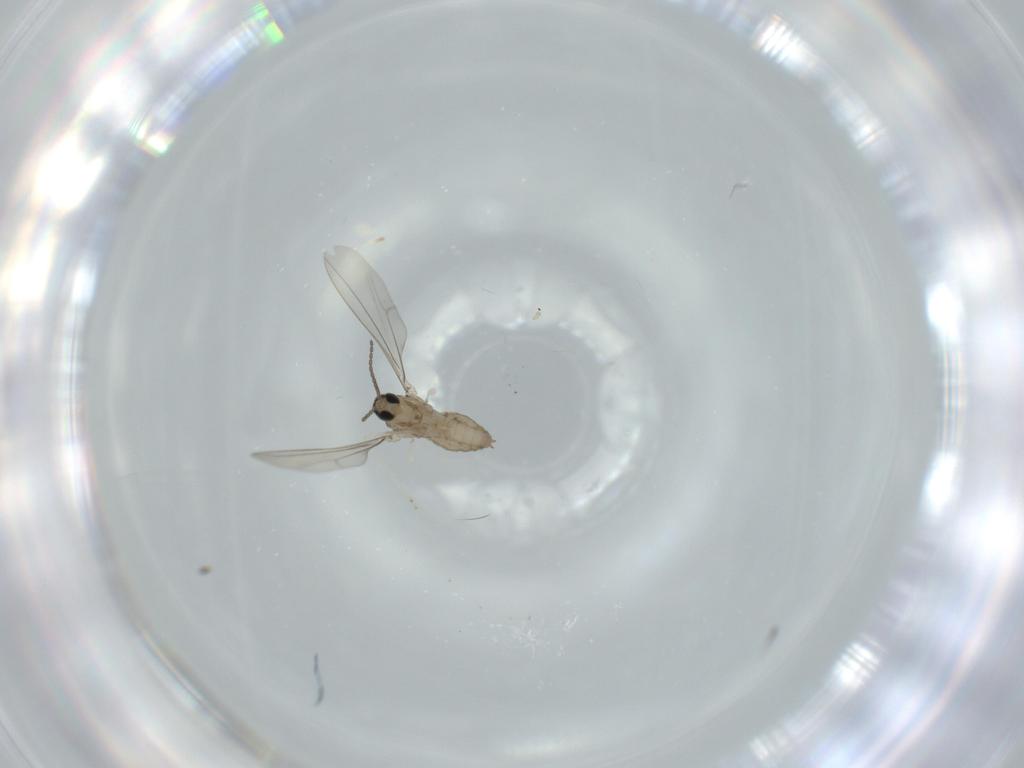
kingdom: Animalia
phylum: Arthropoda
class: Insecta
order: Diptera
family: Cecidomyiidae
